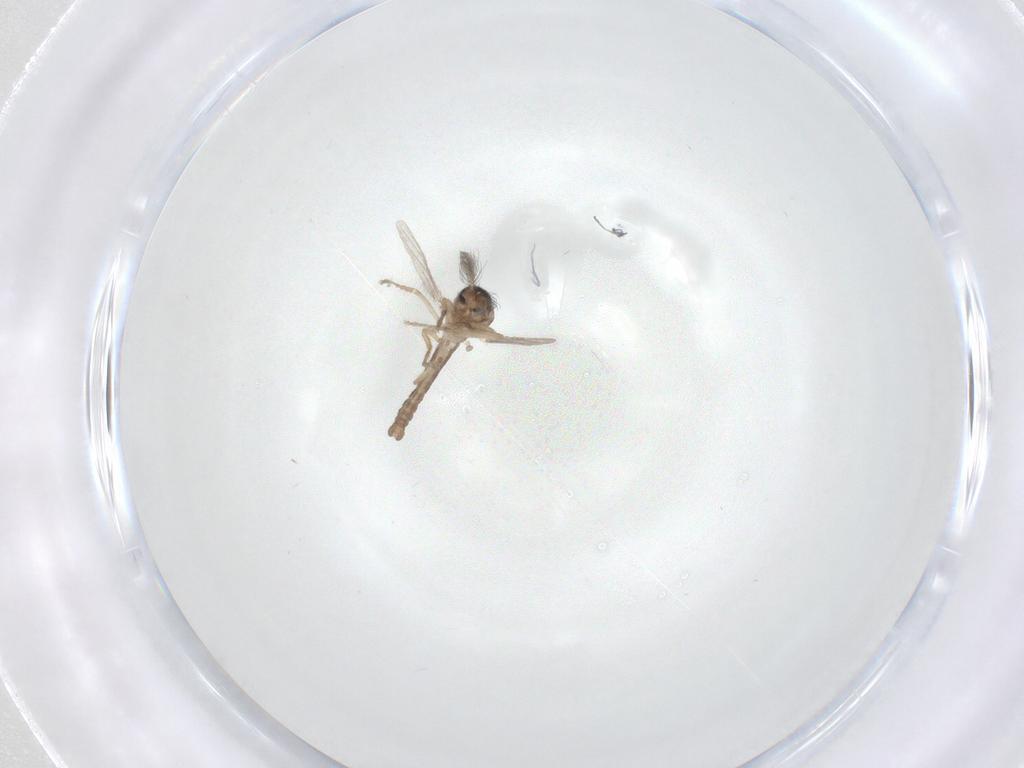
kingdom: Animalia
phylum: Arthropoda
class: Insecta
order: Diptera
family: Ceratopogonidae
